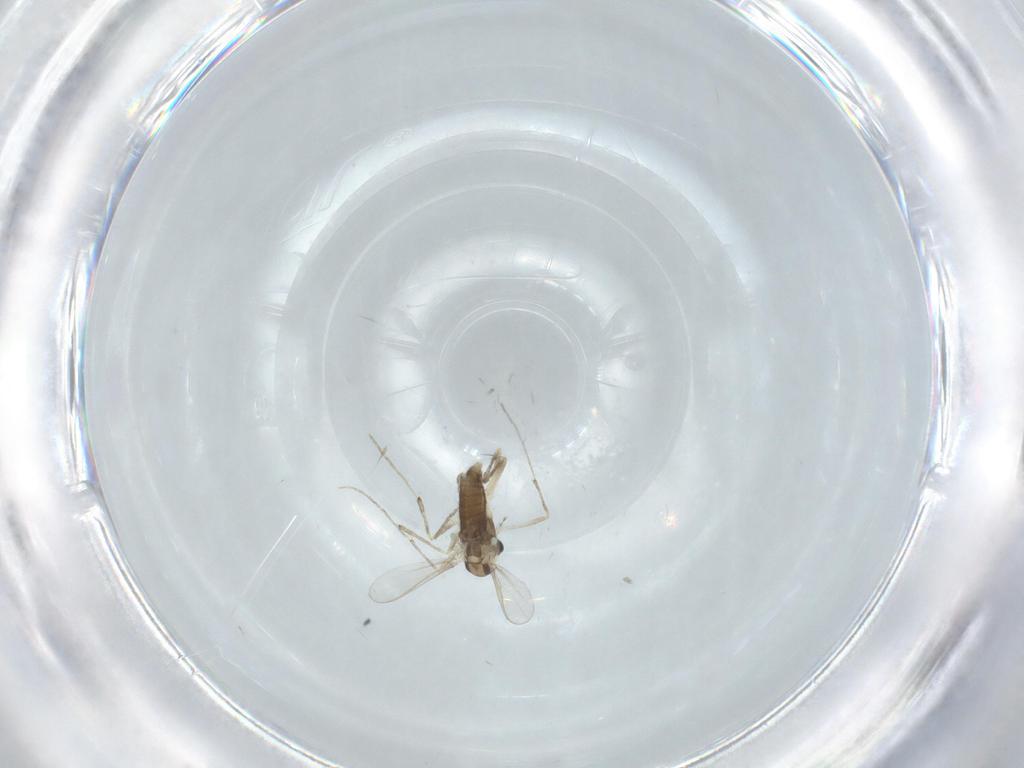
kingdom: Animalia
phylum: Arthropoda
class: Insecta
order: Diptera
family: Chironomidae
